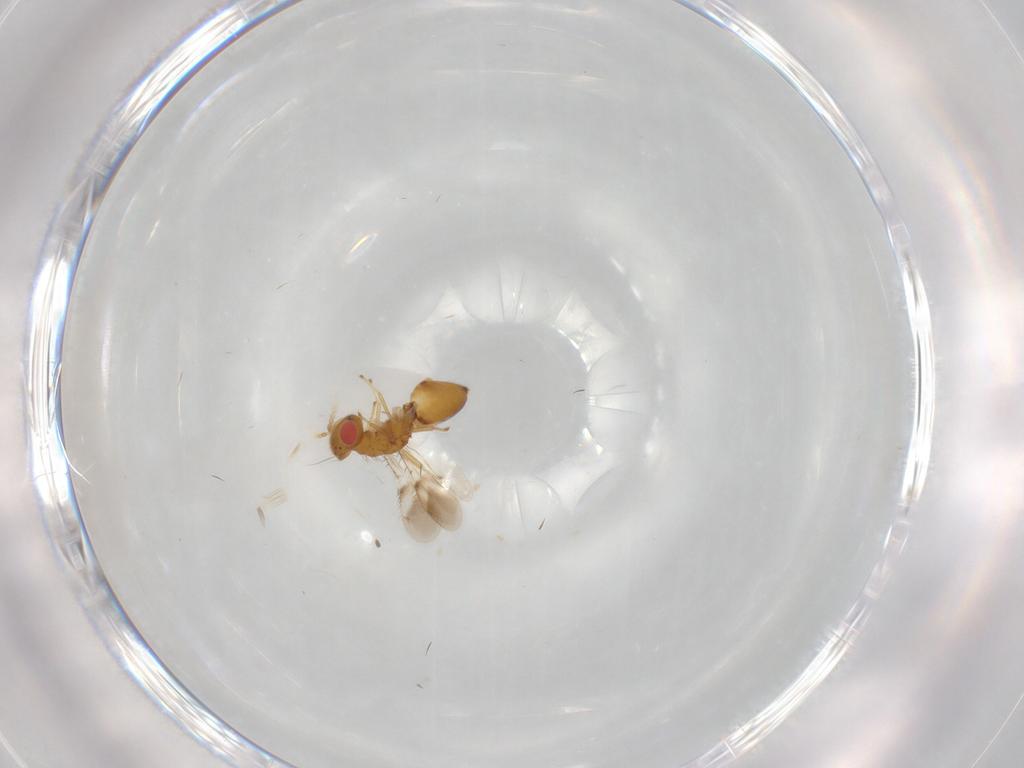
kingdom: Animalia
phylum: Arthropoda
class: Insecta
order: Hymenoptera
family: Eulophidae
